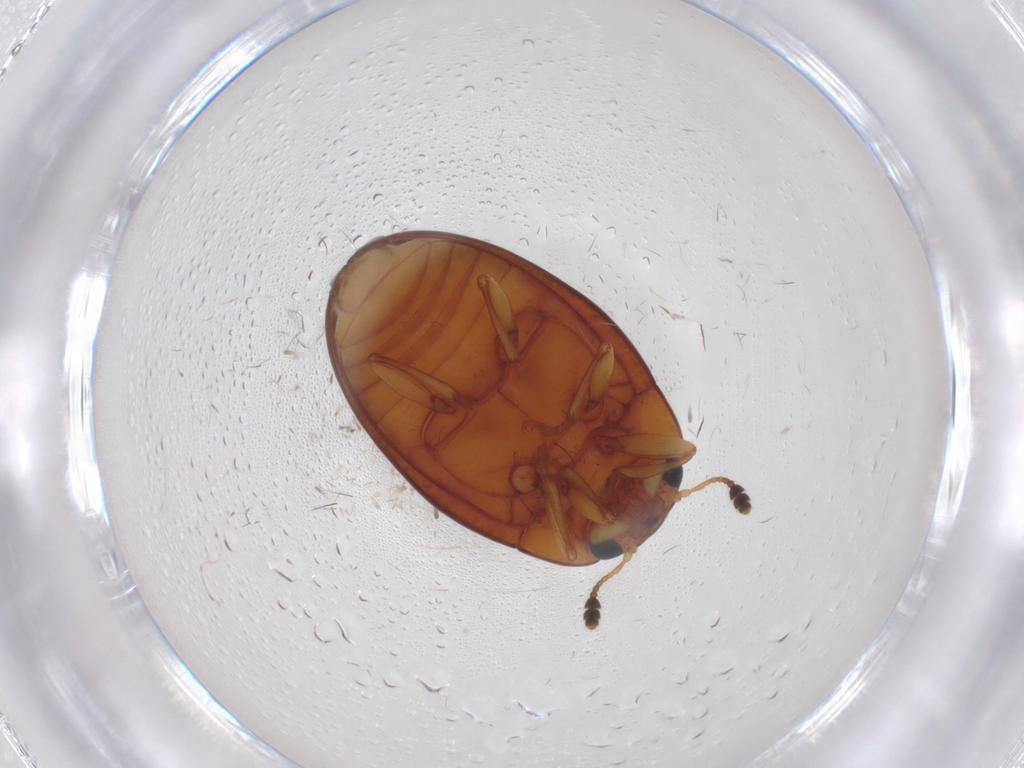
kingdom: Animalia
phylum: Arthropoda
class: Insecta
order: Coleoptera
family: Erotylidae
